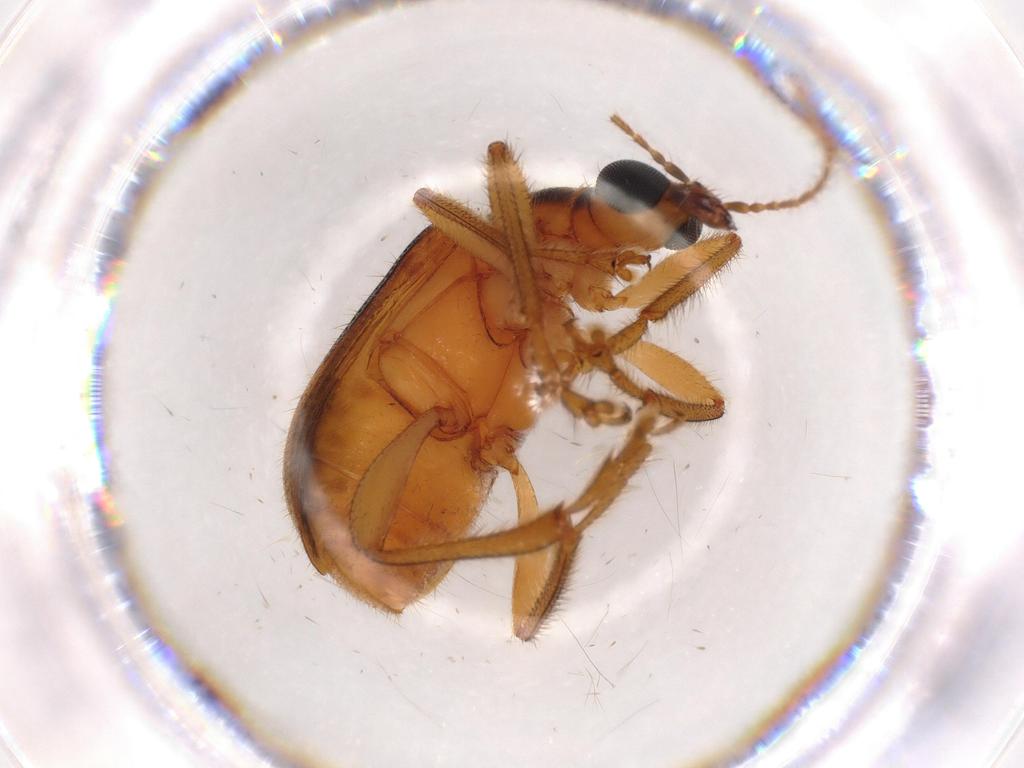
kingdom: Animalia
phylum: Arthropoda
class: Insecta
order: Coleoptera
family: Attelabidae
